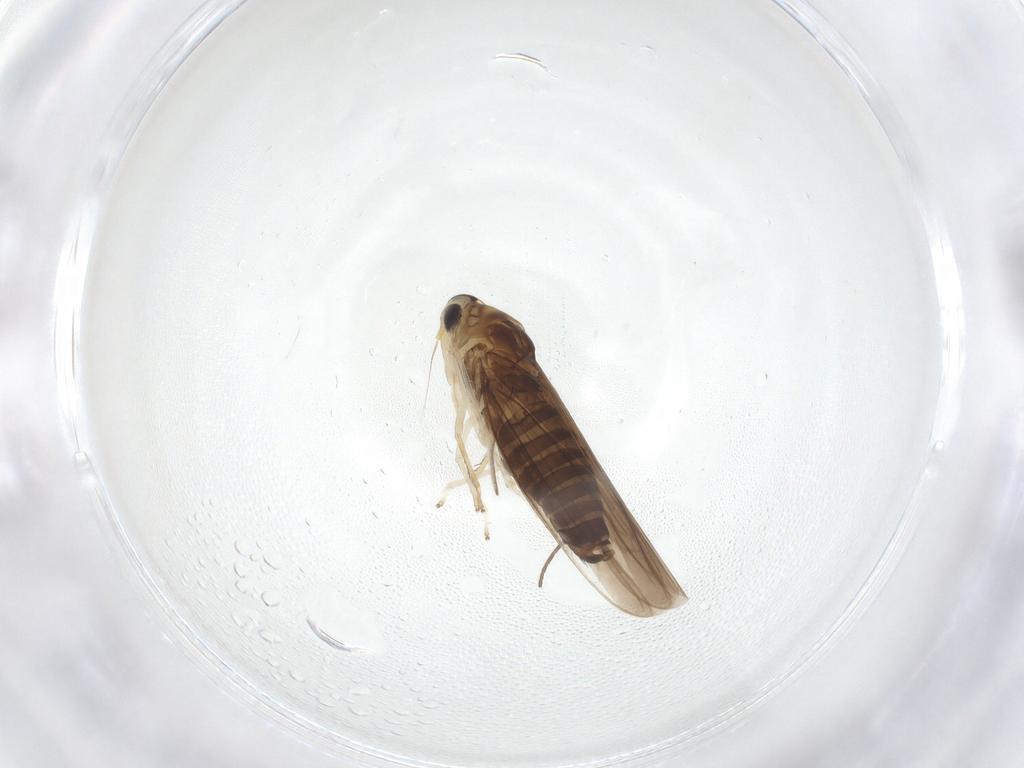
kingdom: Animalia
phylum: Arthropoda
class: Insecta
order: Hemiptera
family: Cicadellidae
